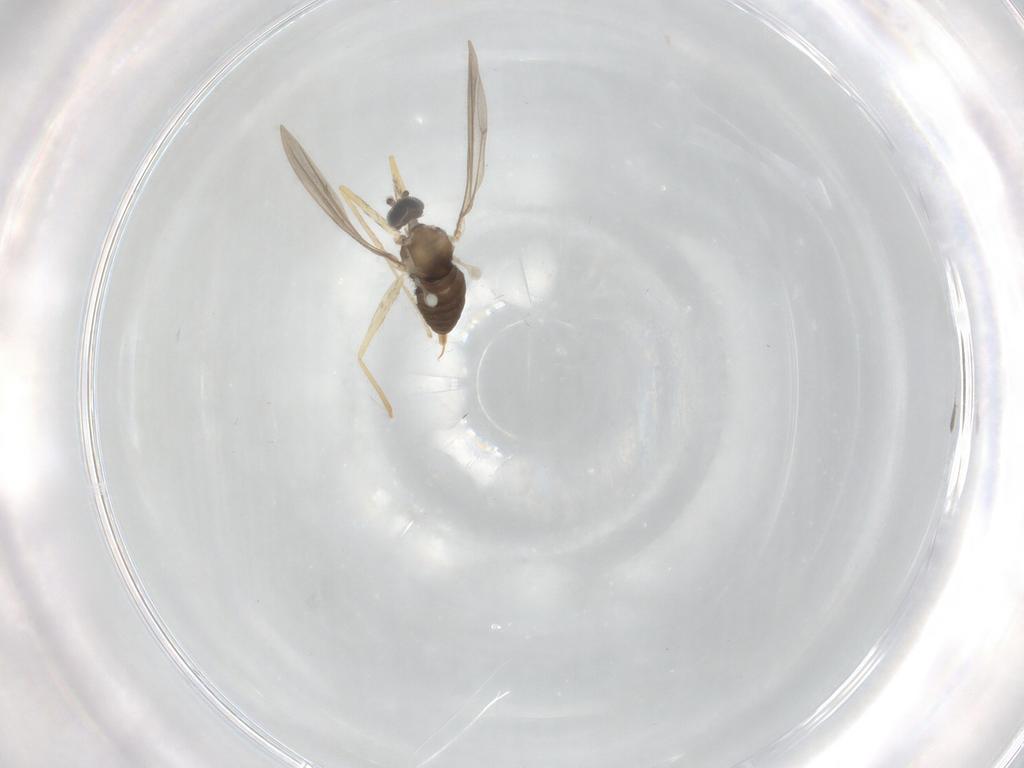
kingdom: Animalia
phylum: Arthropoda
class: Insecta
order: Diptera
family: Cecidomyiidae
